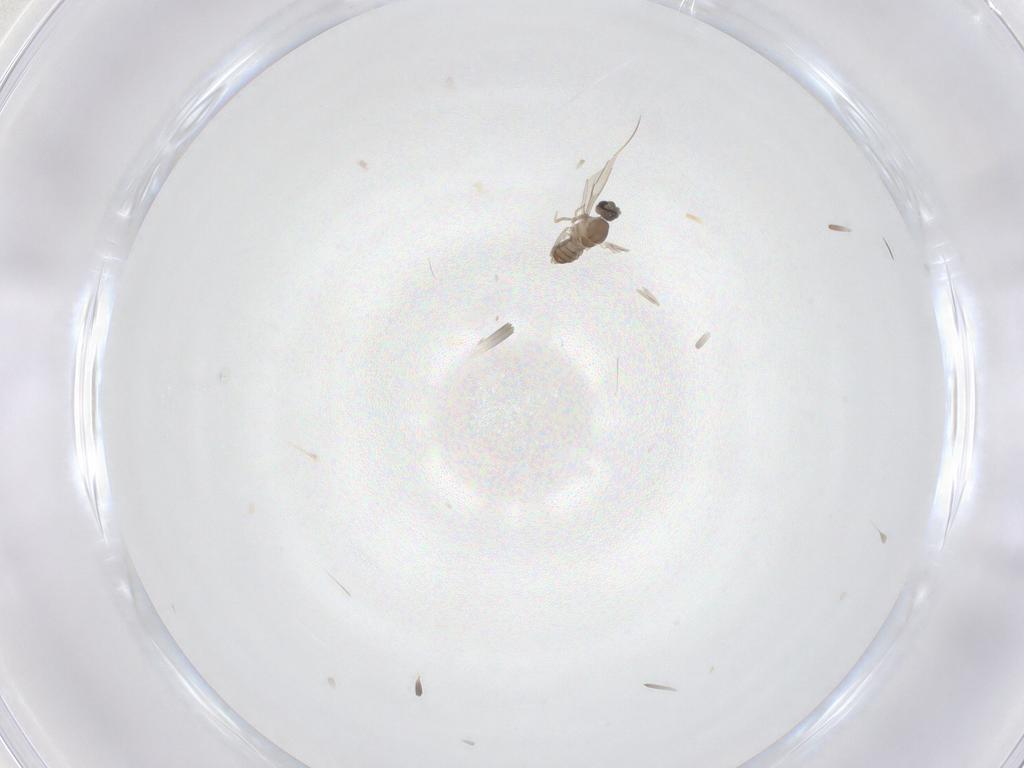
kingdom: Animalia
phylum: Arthropoda
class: Insecta
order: Diptera
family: Cecidomyiidae
